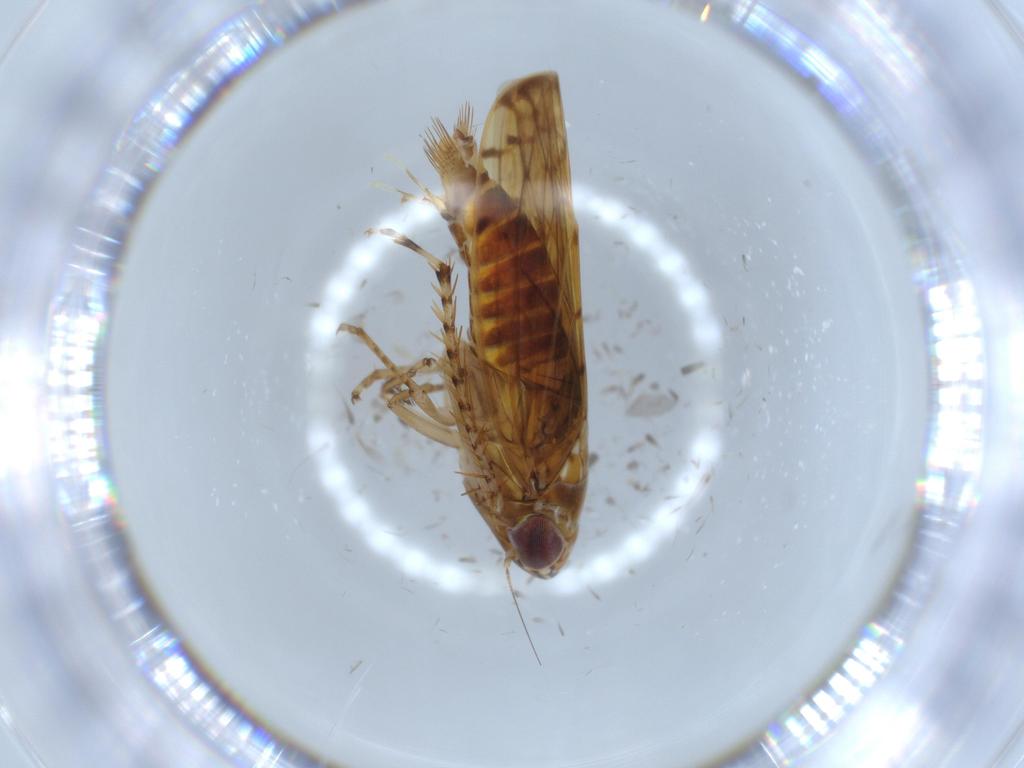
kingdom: Animalia
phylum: Arthropoda
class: Insecta
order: Hemiptera
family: Cicadellidae
